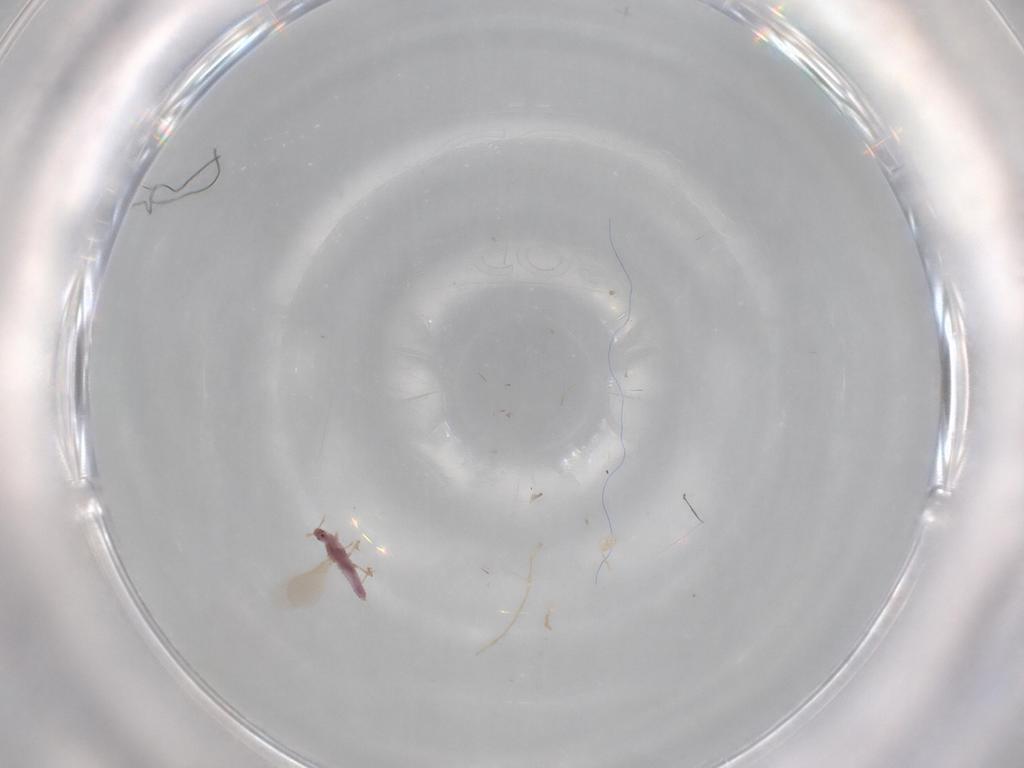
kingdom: Animalia
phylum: Arthropoda
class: Insecta
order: Hemiptera
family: Pseudococcidae
